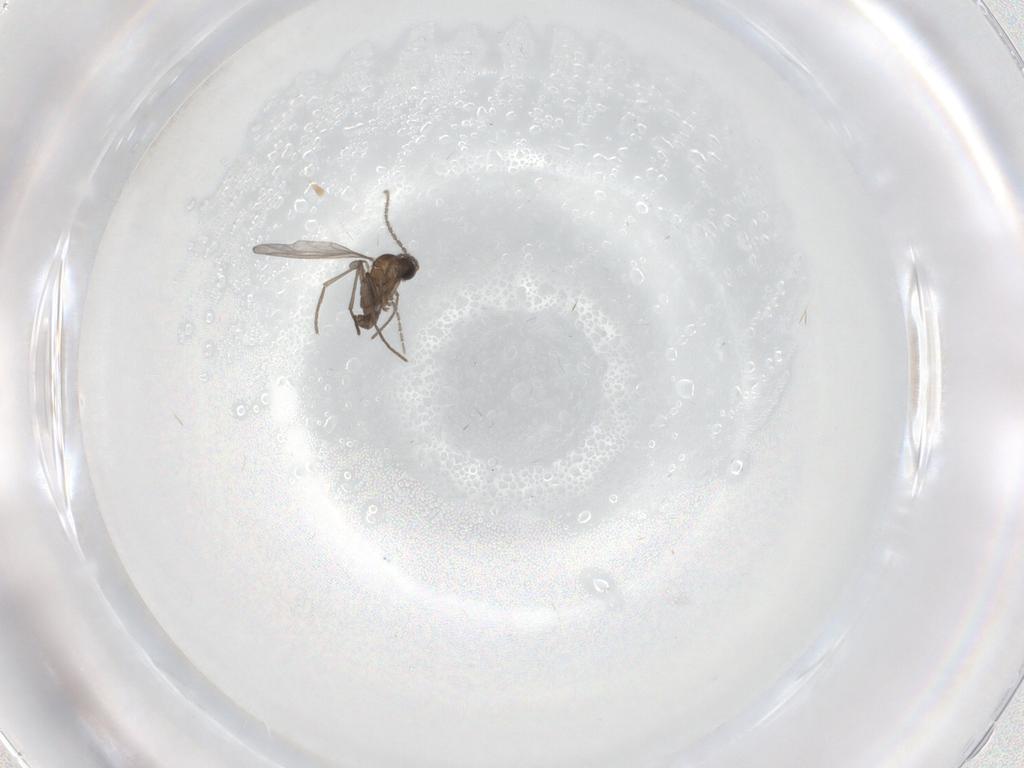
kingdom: Animalia
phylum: Arthropoda
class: Insecta
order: Diptera
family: Sciaridae
